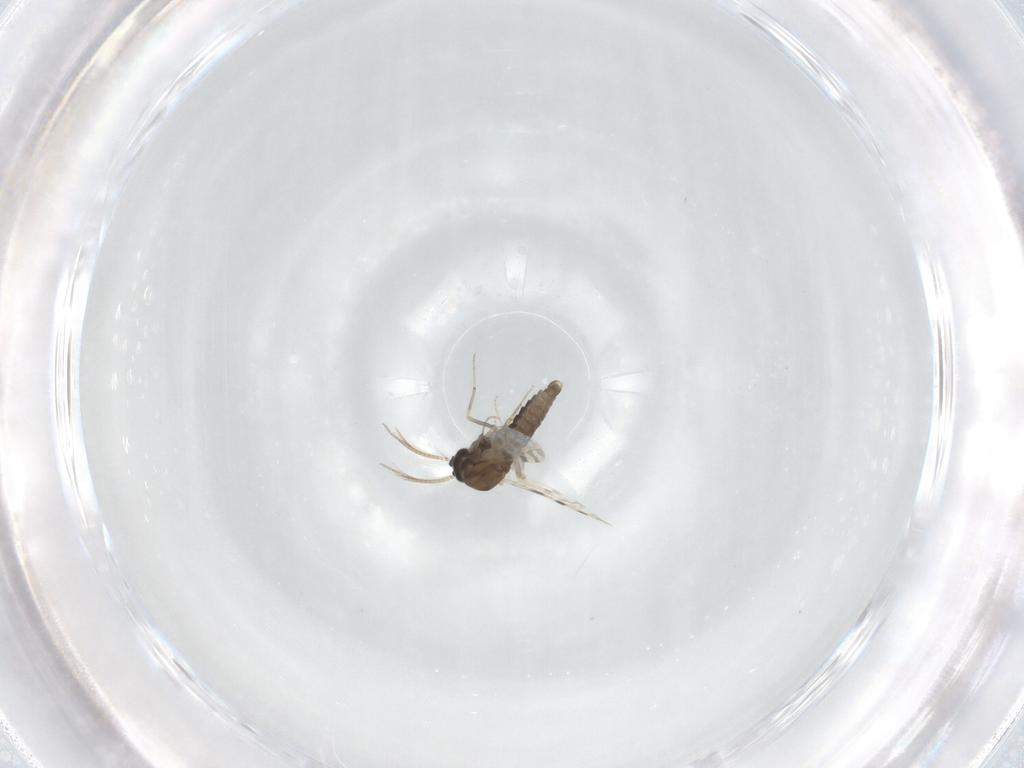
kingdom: Animalia
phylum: Arthropoda
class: Insecta
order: Diptera
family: Ceratopogonidae
